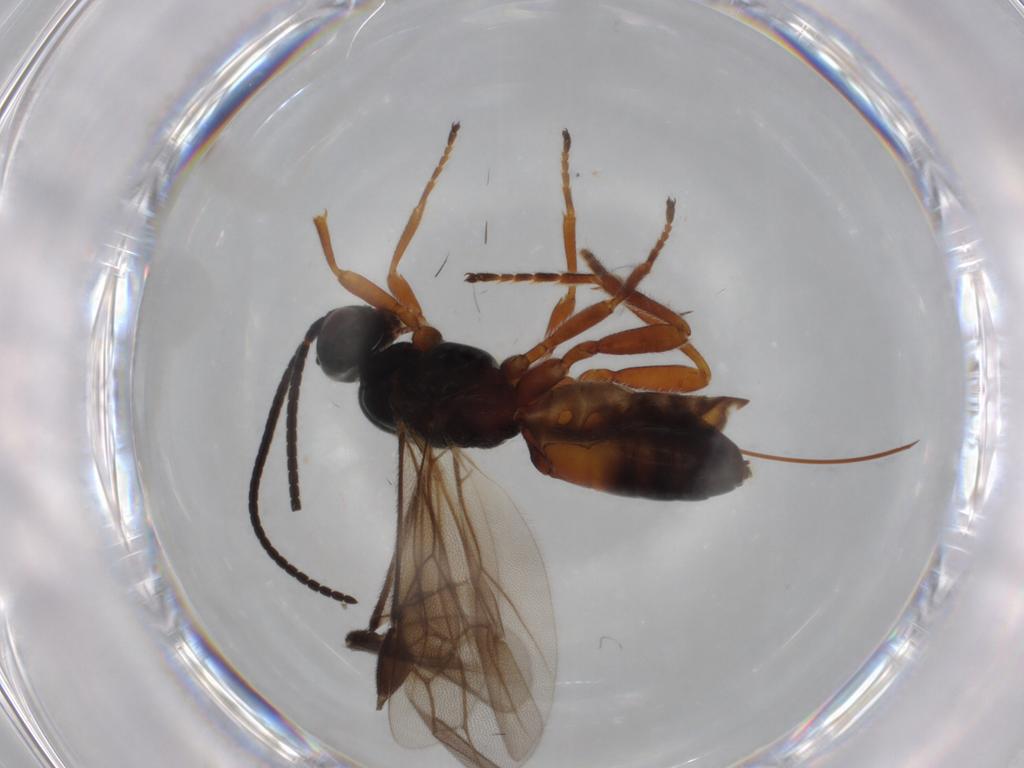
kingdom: Animalia
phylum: Arthropoda
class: Insecta
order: Hymenoptera
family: Braconidae
